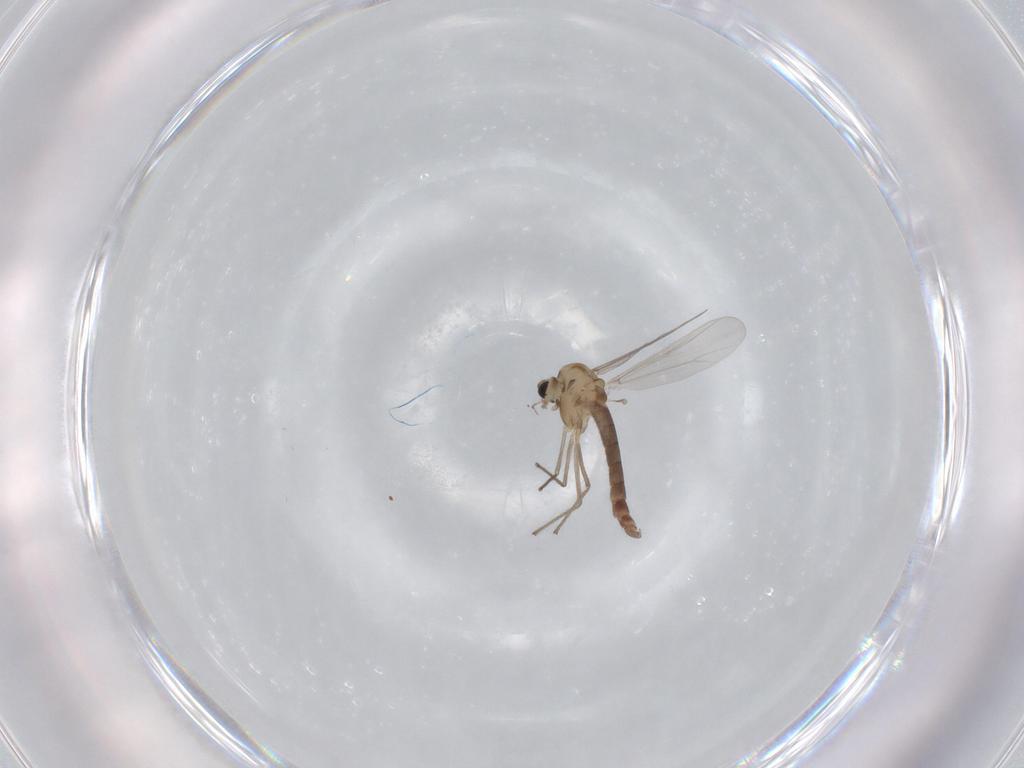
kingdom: Animalia
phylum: Arthropoda
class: Insecta
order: Diptera
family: Chironomidae
